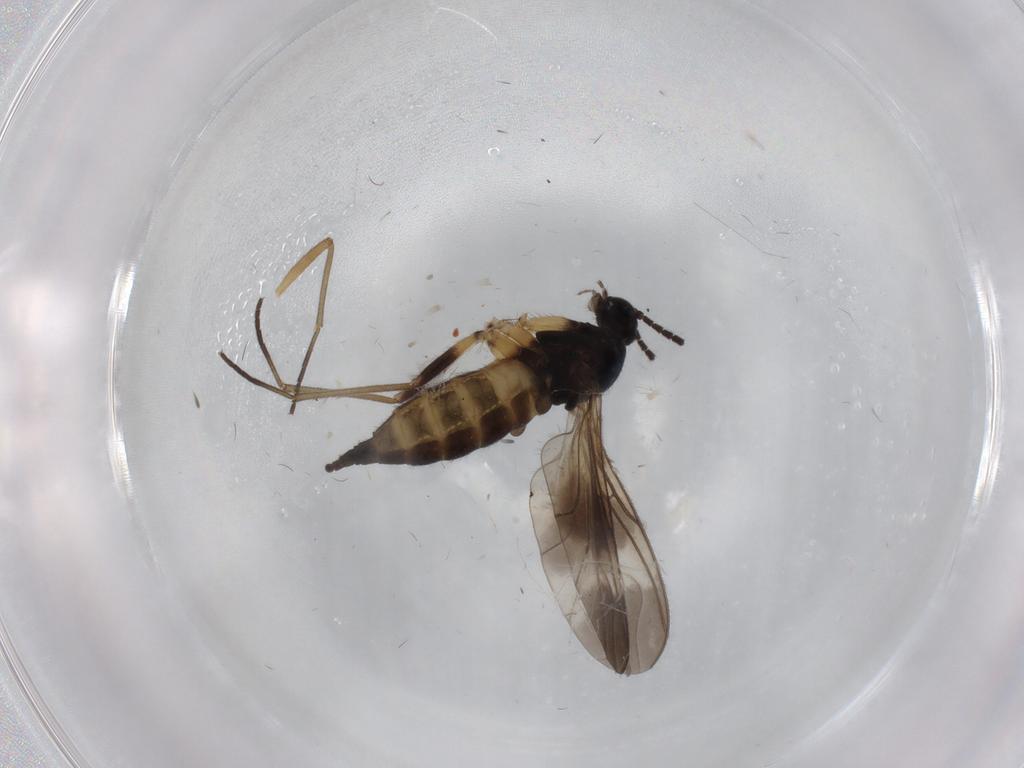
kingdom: Animalia
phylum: Arthropoda
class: Insecta
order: Diptera
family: Sciaridae
